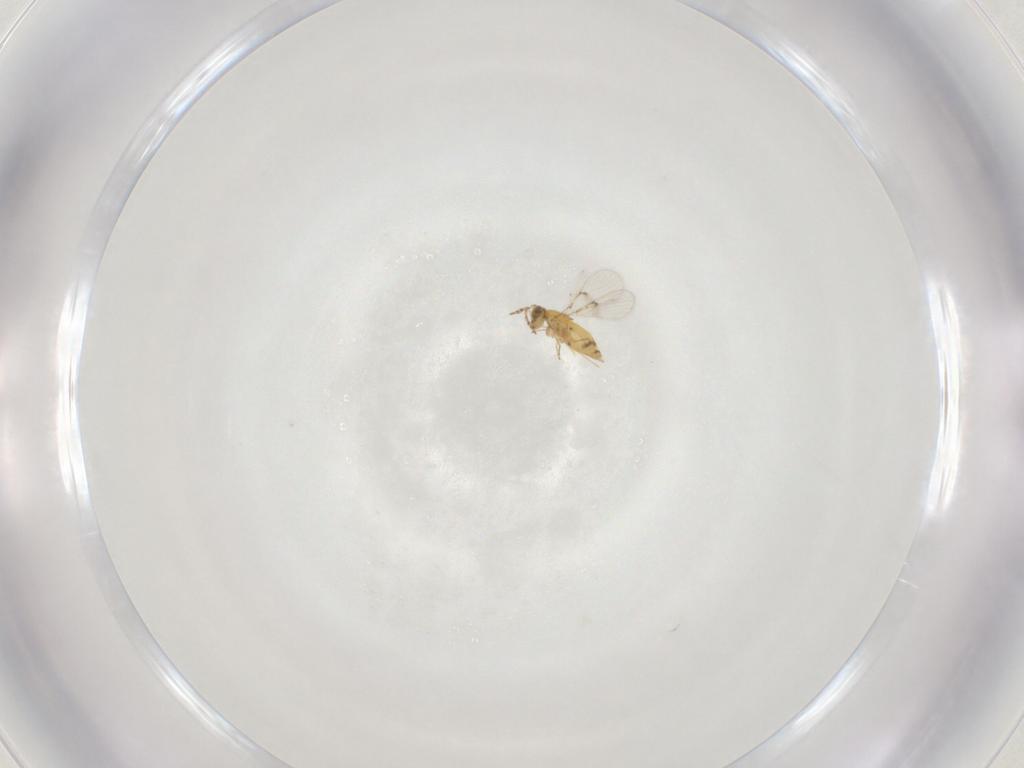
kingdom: Animalia
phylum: Arthropoda
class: Insecta
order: Hymenoptera
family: Trichogrammatidae
